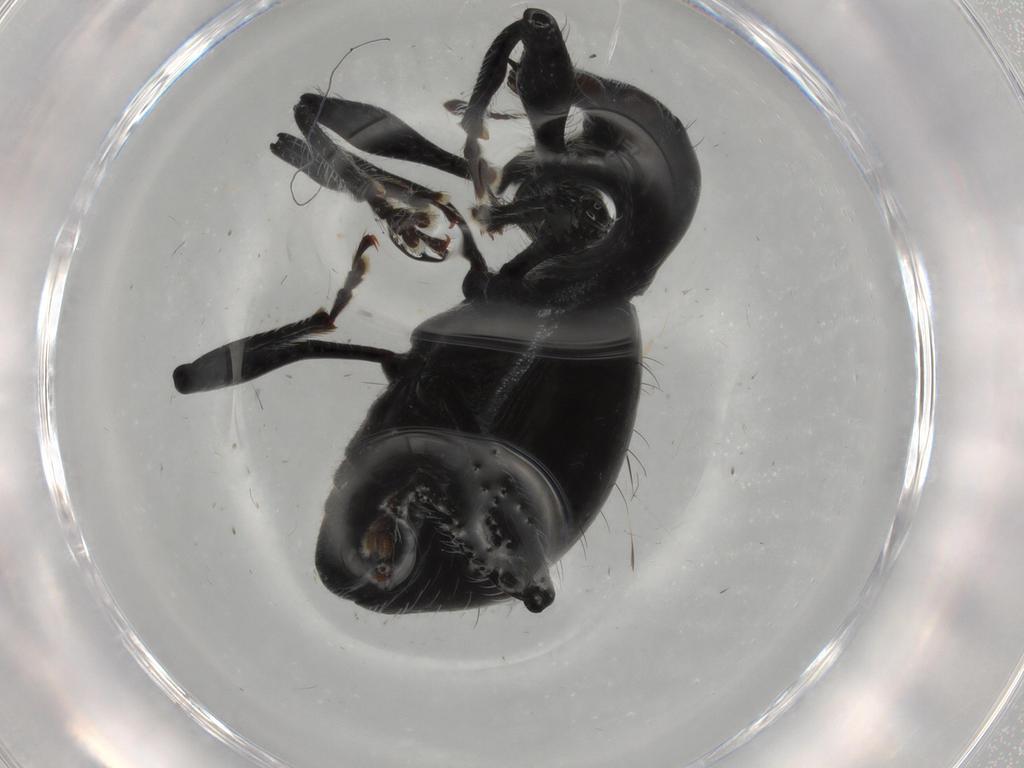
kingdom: Animalia
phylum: Arthropoda
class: Insecta
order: Coleoptera
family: Curculionidae
